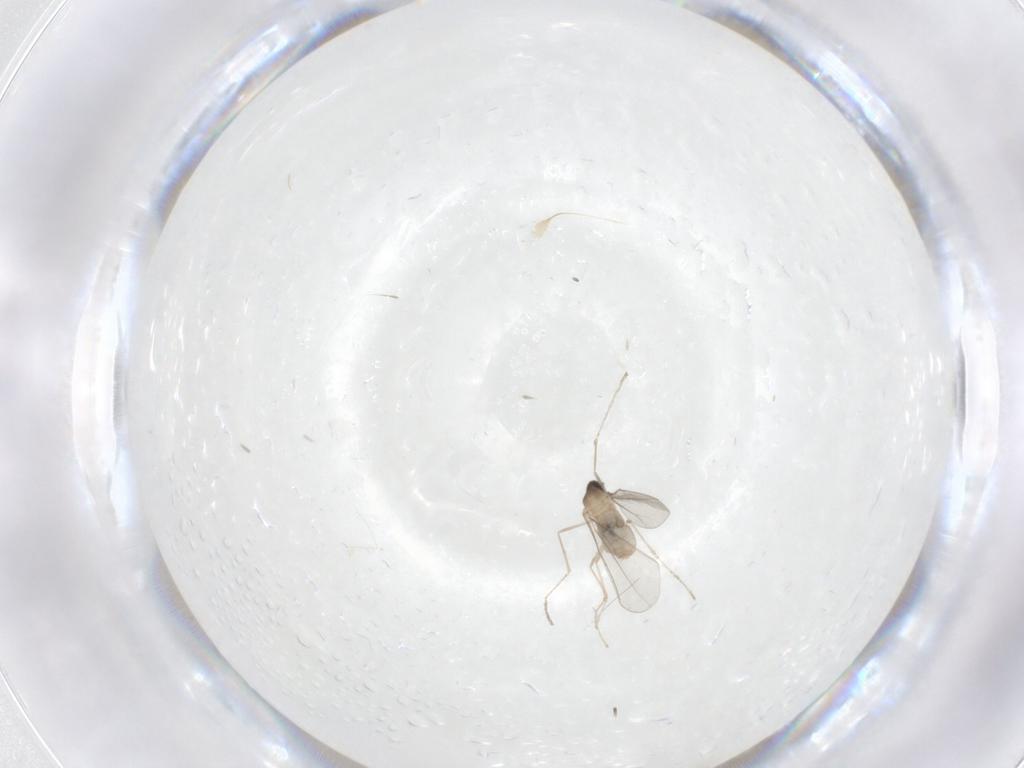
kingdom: Animalia
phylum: Arthropoda
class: Insecta
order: Diptera
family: Cecidomyiidae
